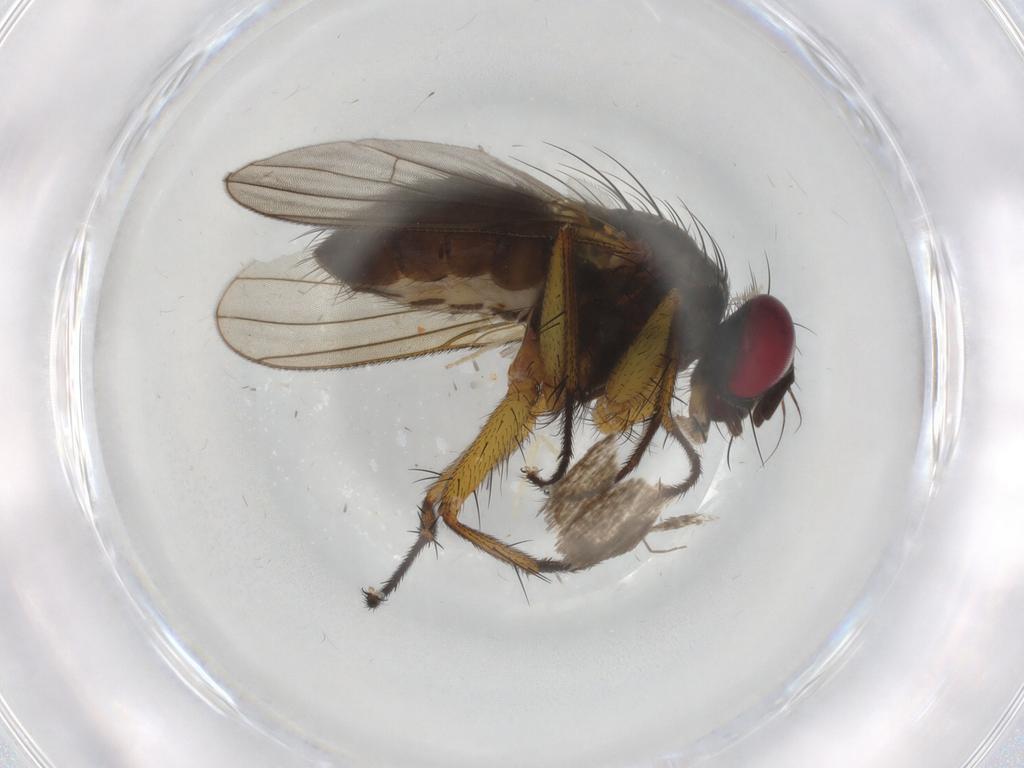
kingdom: Animalia
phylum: Arthropoda
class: Insecta
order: Diptera
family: Muscidae
